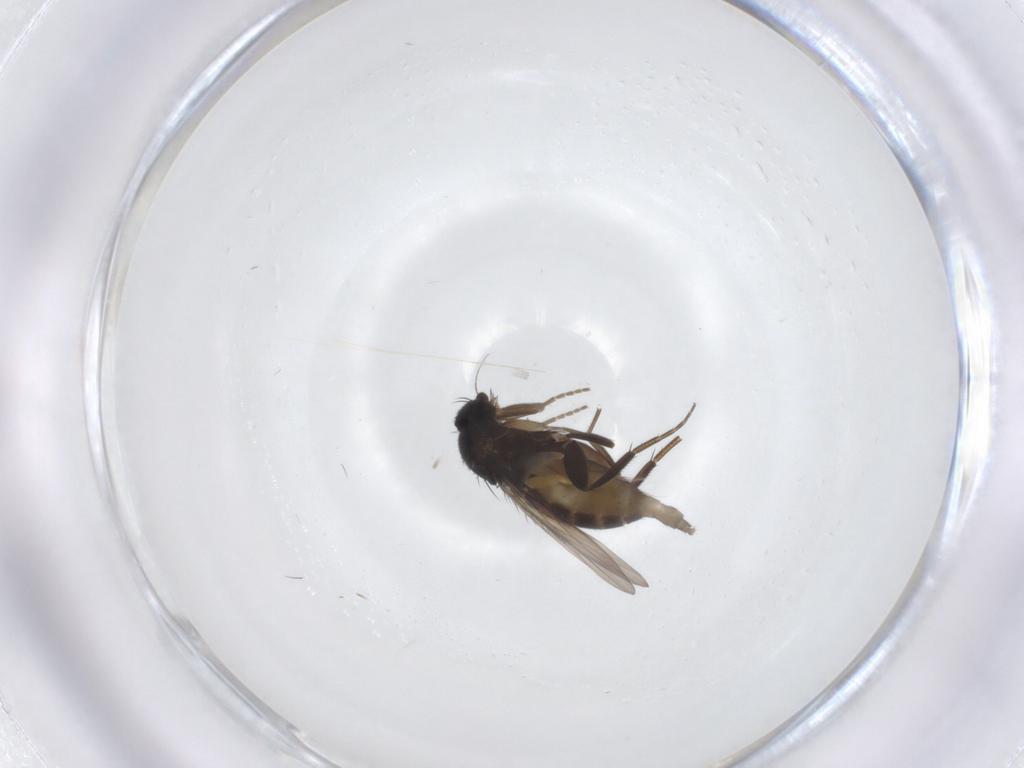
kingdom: Animalia
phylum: Arthropoda
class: Insecta
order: Diptera
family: Phoridae
